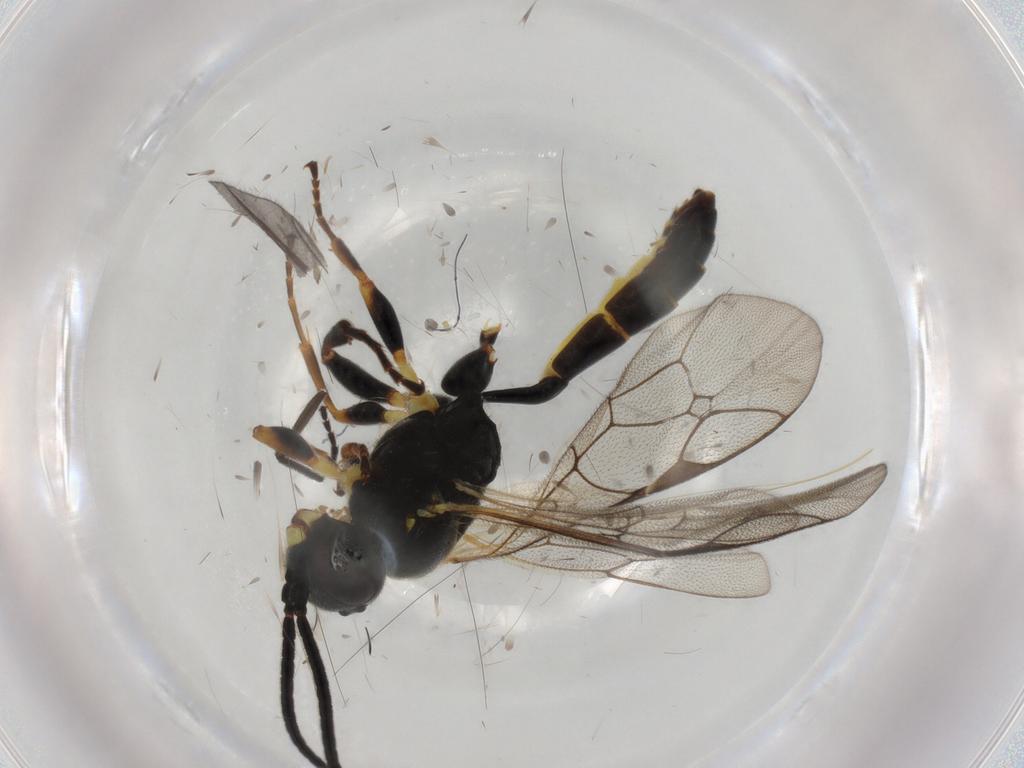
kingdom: Animalia
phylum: Arthropoda
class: Insecta
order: Hymenoptera
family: Ichneumonidae
